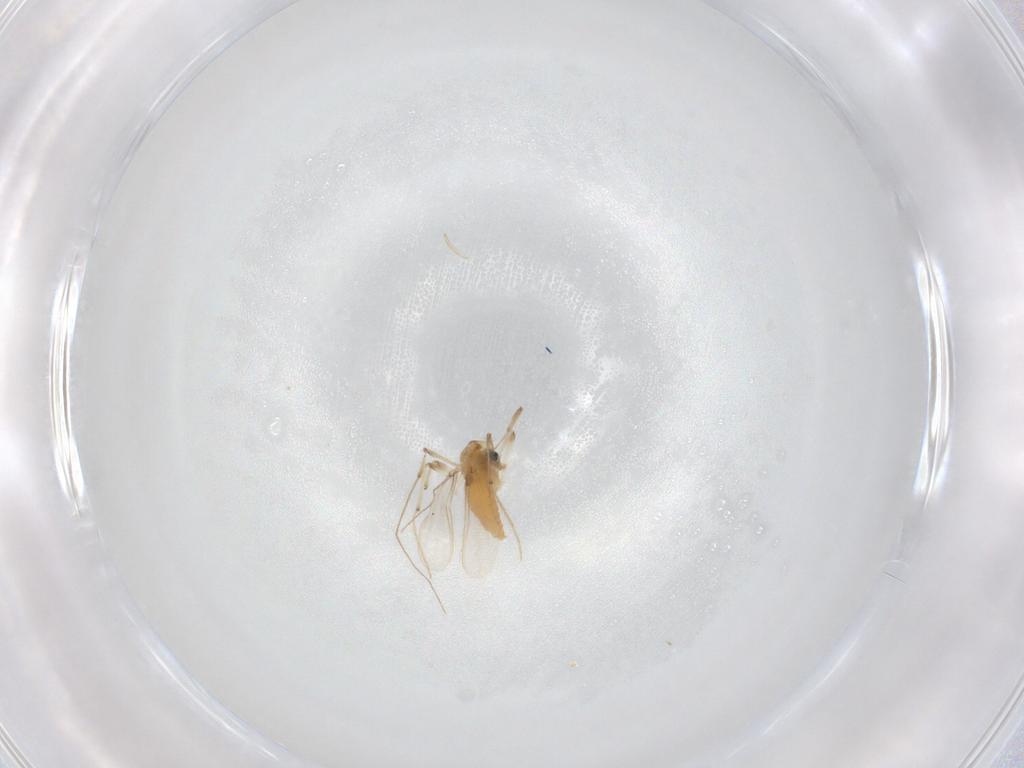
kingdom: Animalia
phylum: Arthropoda
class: Insecta
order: Diptera
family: Chironomidae
